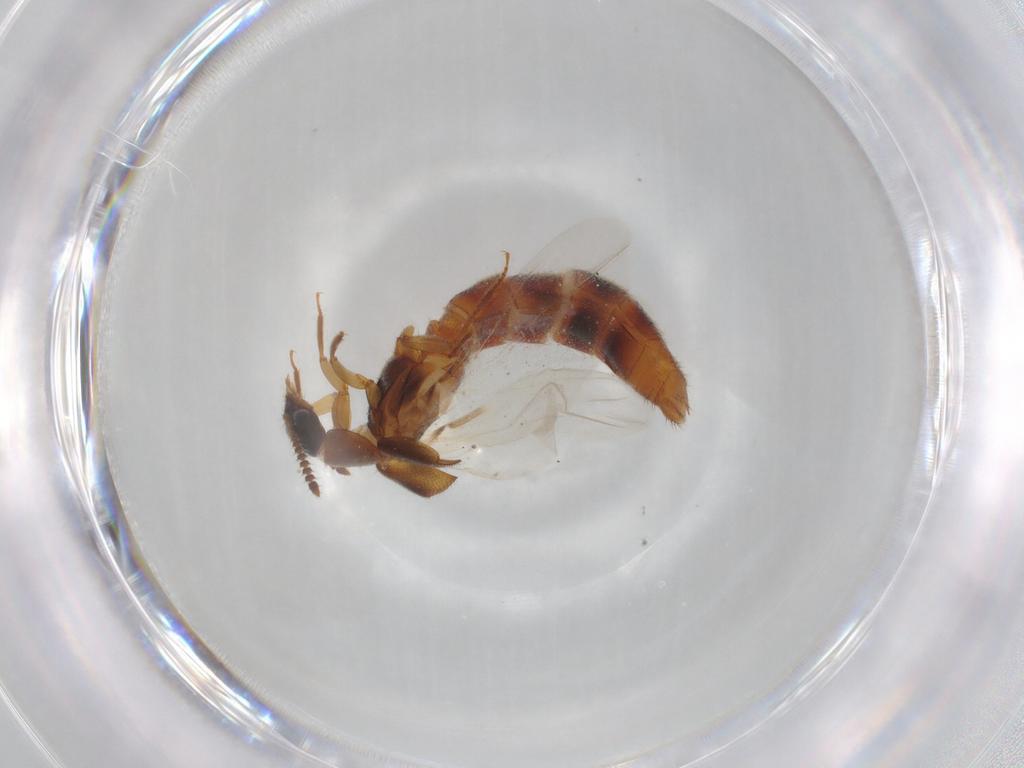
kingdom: Animalia
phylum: Arthropoda
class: Insecta
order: Coleoptera
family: Staphylinidae
